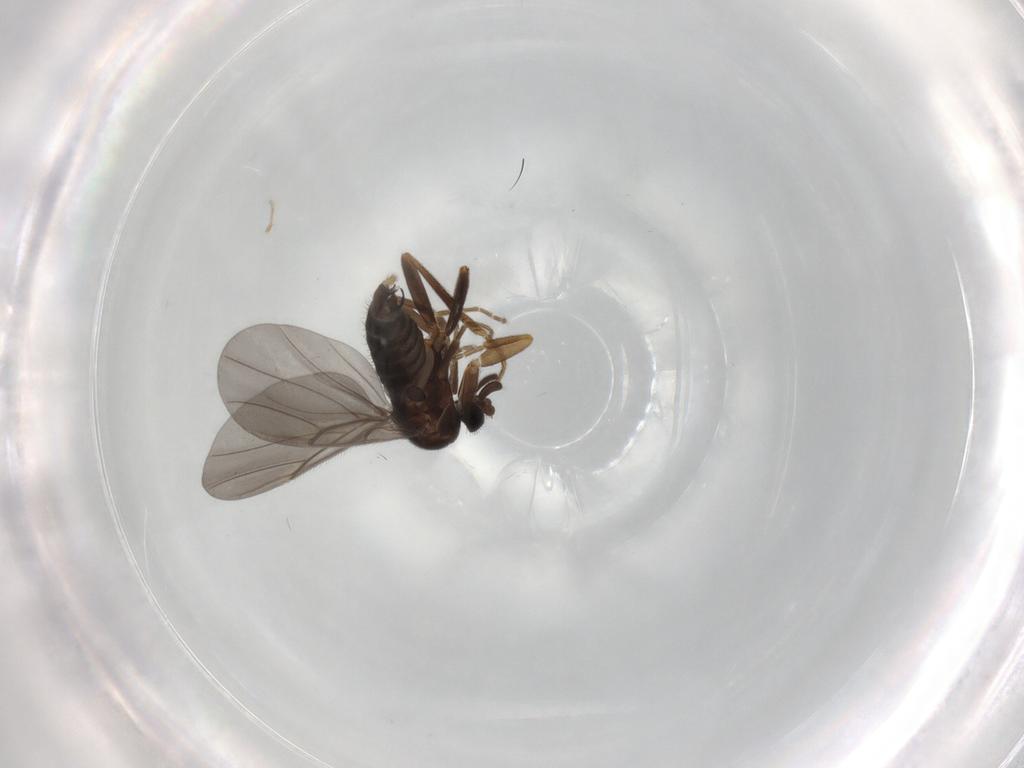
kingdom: Animalia
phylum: Arthropoda
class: Insecta
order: Diptera
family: Phoridae
